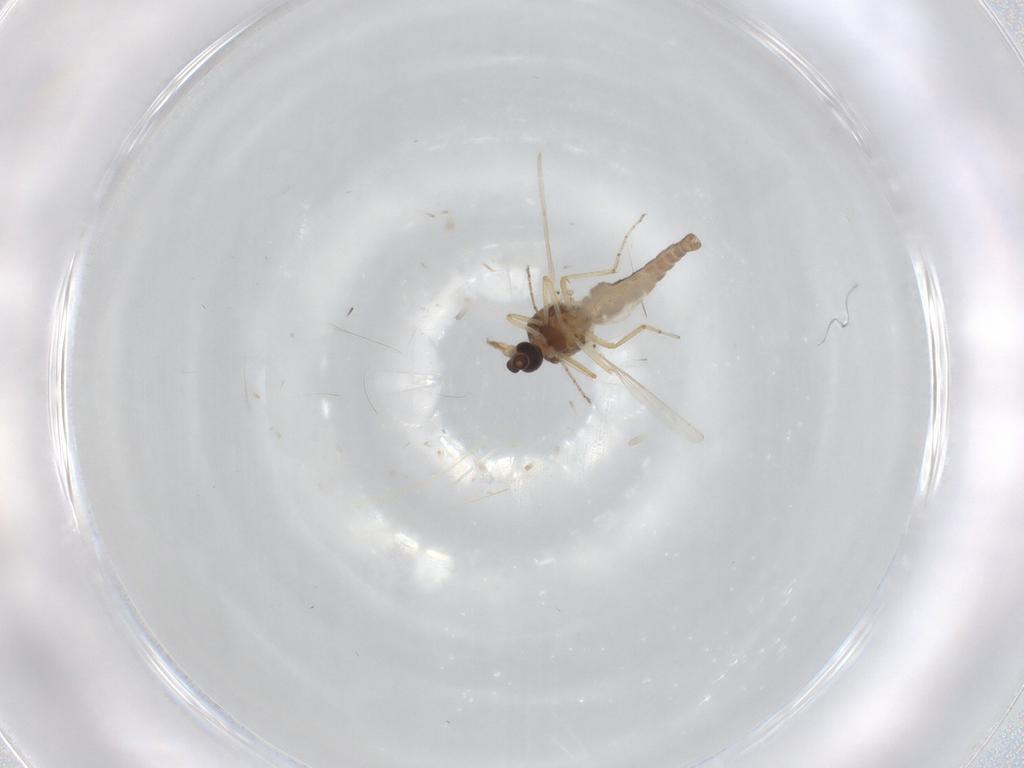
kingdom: Animalia
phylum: Arthropoda
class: Insecta
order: Diptera
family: Ceratopogonidae
